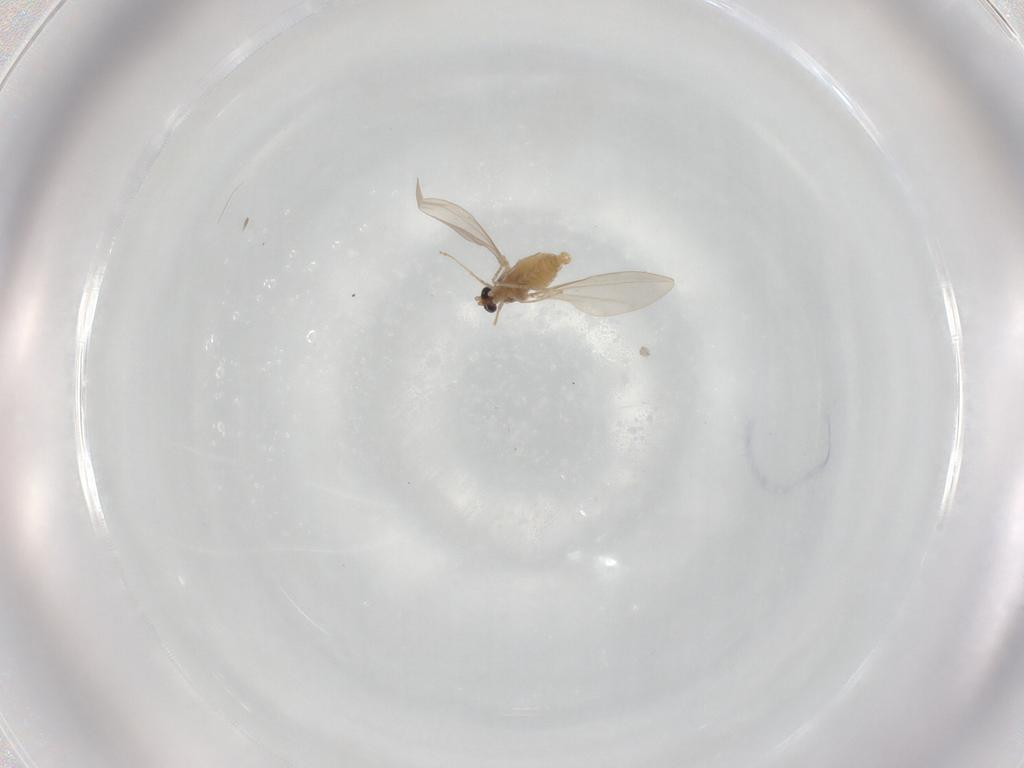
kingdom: Animalia
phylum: Arthropoda
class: Insecta
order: Diptera
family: Cecidomyiidae
